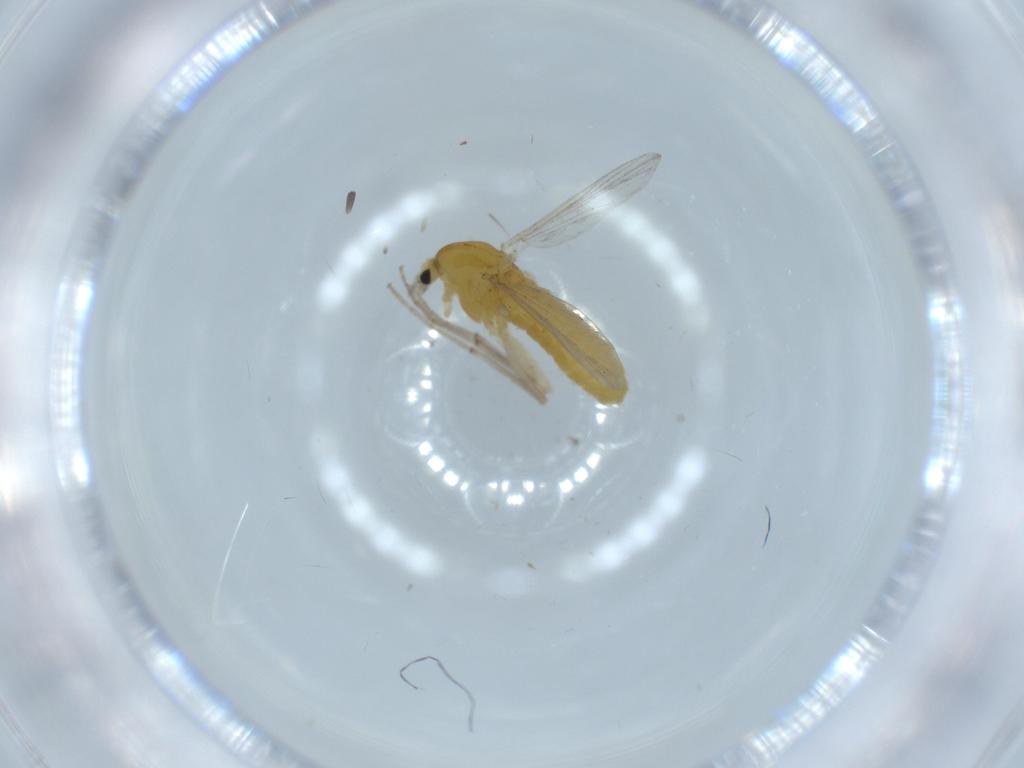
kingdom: Animalia
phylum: Arthropoda
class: Insecta
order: Diptera
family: Chironomidae
